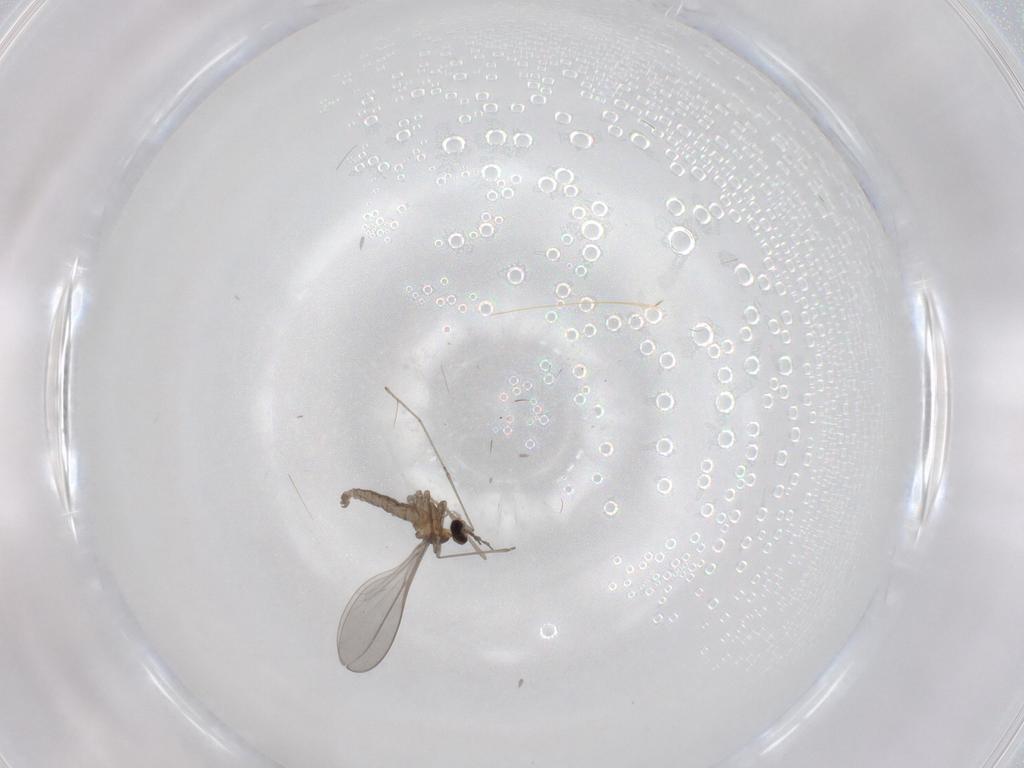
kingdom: Animalia
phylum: Arthropoda
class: Insecta
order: Diptera
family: Cecidomyiidae
